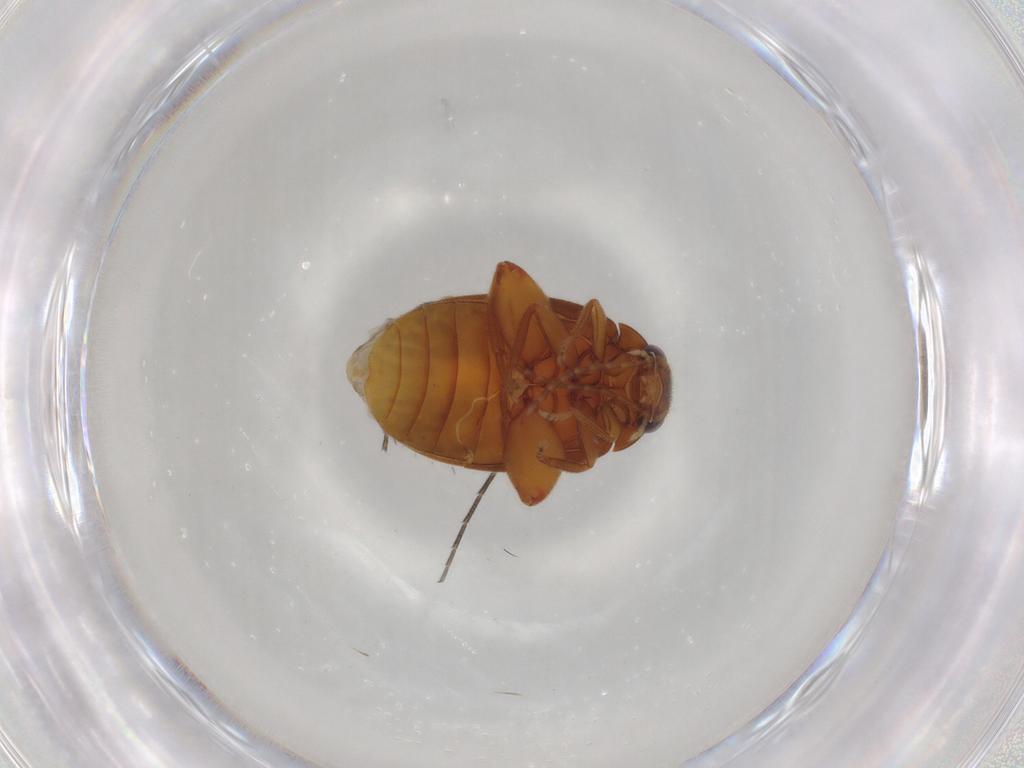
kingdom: Animalia
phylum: Arthropoda
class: Insecta
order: Coleoptera
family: Scirtidae
